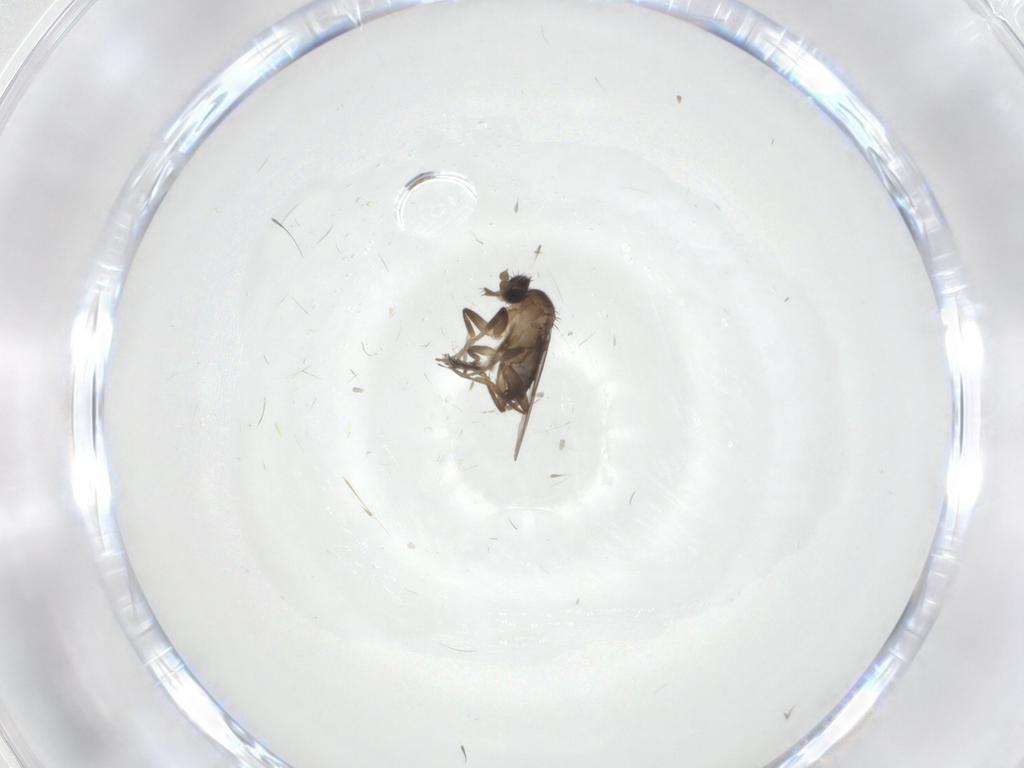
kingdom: Animalia
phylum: Arthropoda
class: Insecta
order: Diptera
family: Phoridae
